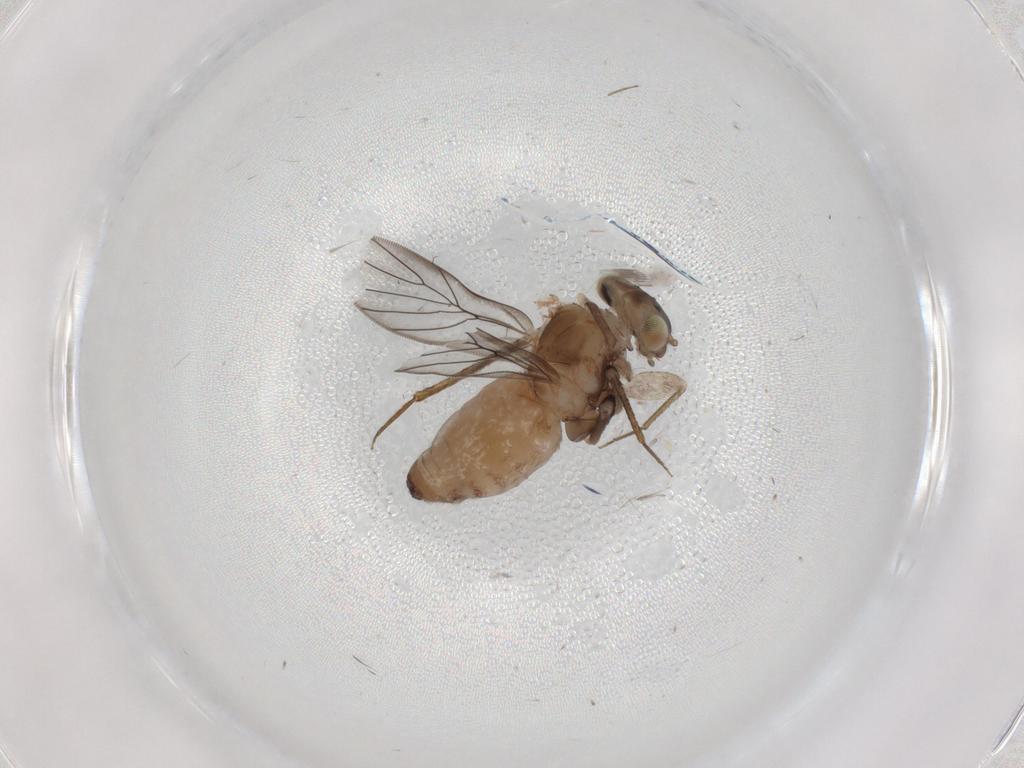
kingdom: Animalia
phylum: Arthropoda
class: Insecta
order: Psocodea
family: Lepidopsocidae
